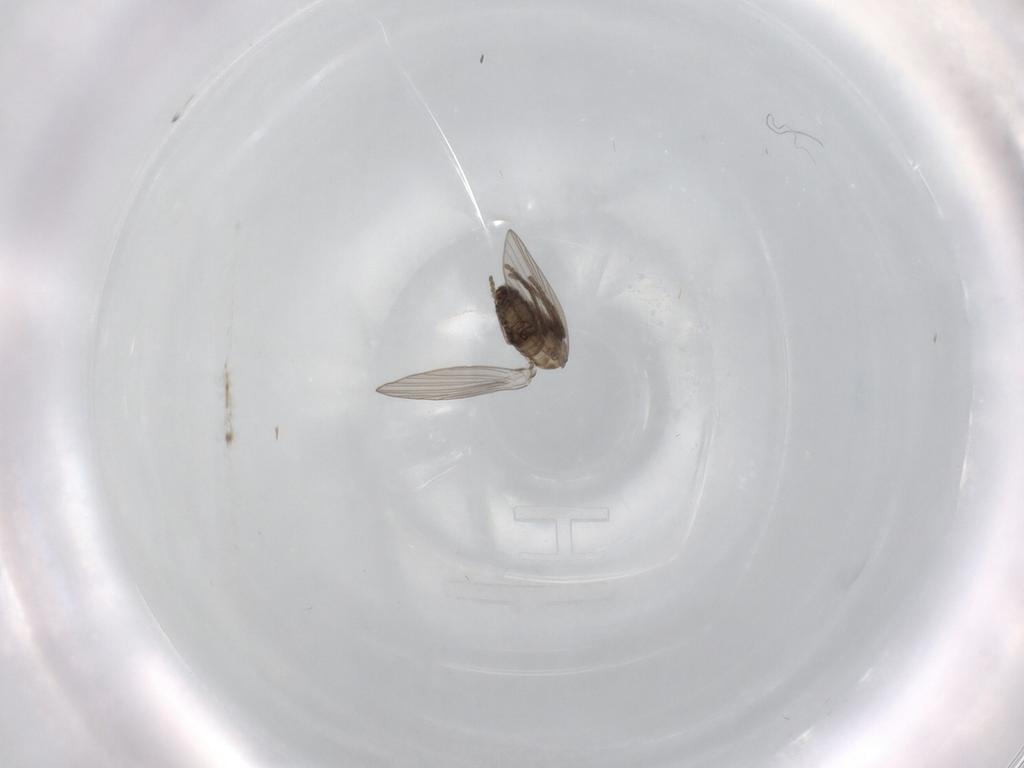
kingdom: Animalia
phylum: Arthropoda
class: Insecta
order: Diptera
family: Psychodidae
